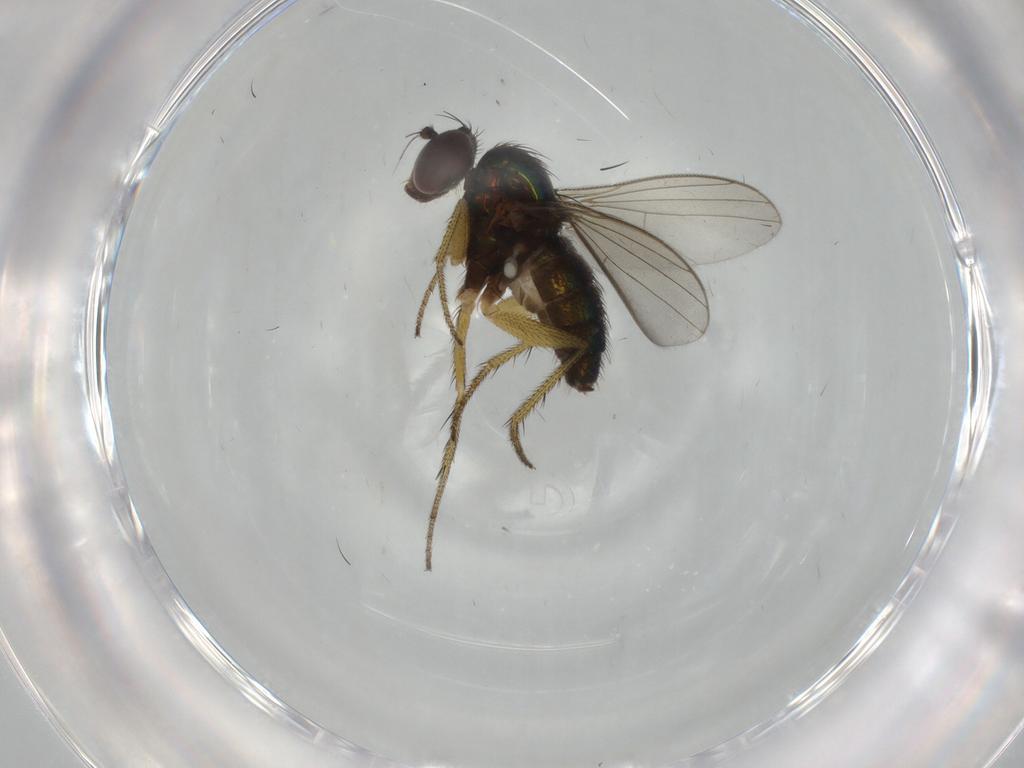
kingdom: Animalia
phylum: Arthropoda
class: Insecta
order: Diptera
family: Dolichopodidae
